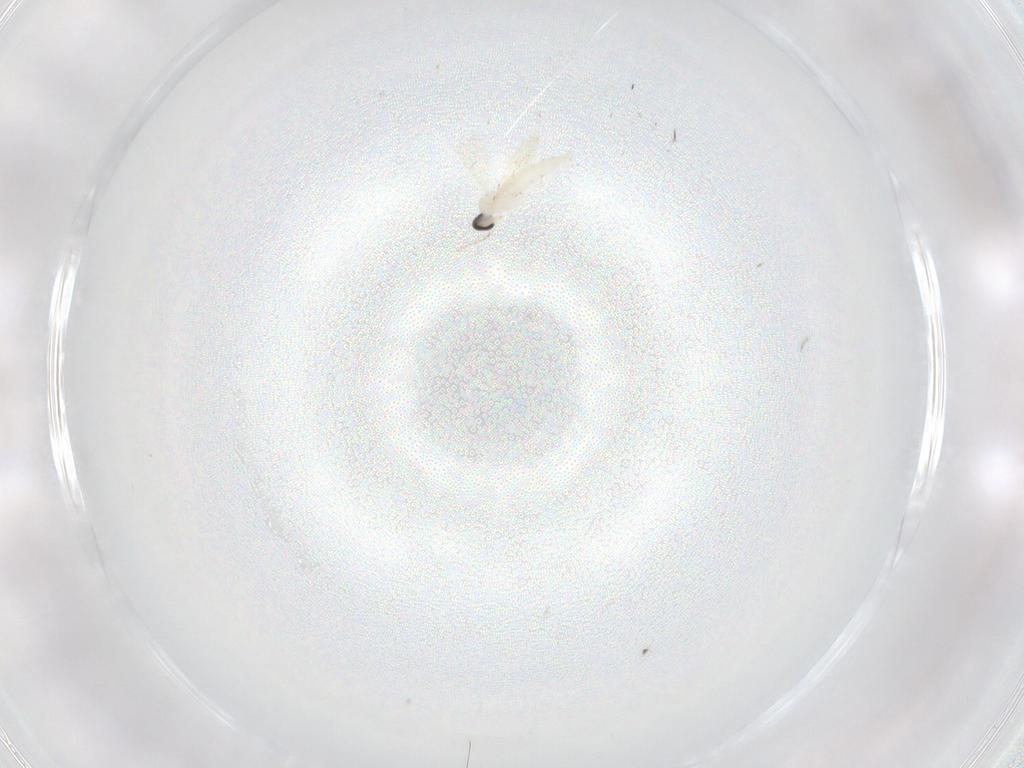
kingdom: Animalia
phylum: Arthropoda
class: Insecta
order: Diptera
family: Cecidomyiidae
